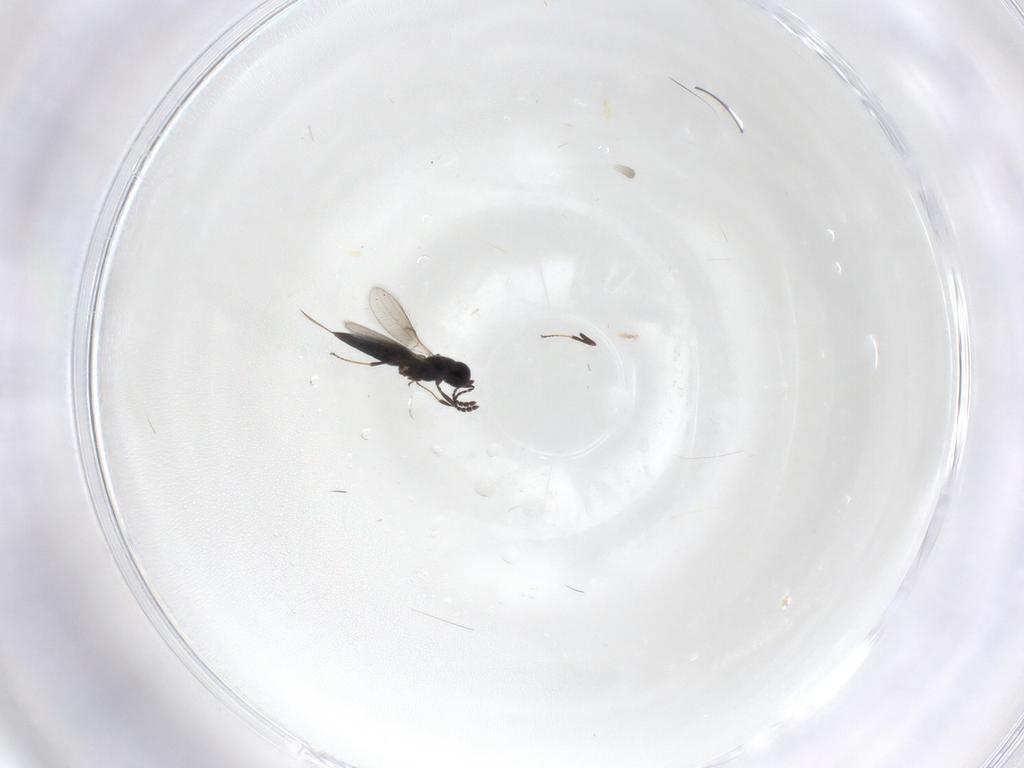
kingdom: Animalia
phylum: Arthropoda
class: Insecta
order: Hymenoptera
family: Scelionidae
